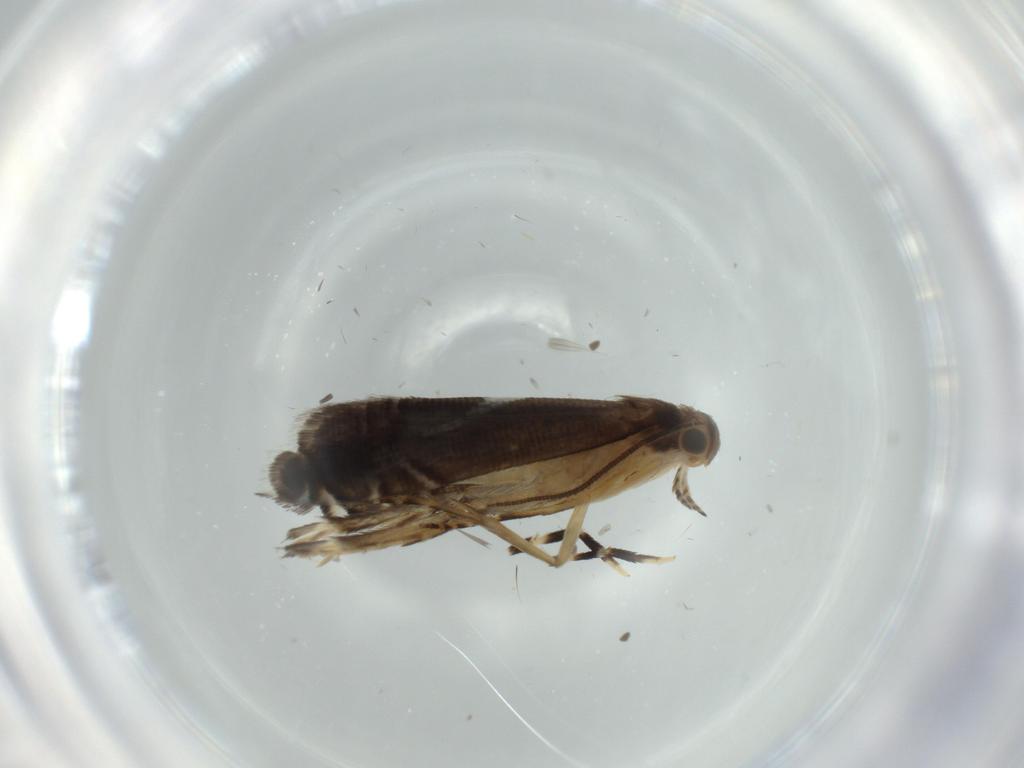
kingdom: Animalia
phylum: Arthropoda
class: Insecta
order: Lepidoptera
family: Glyphipterigidae
